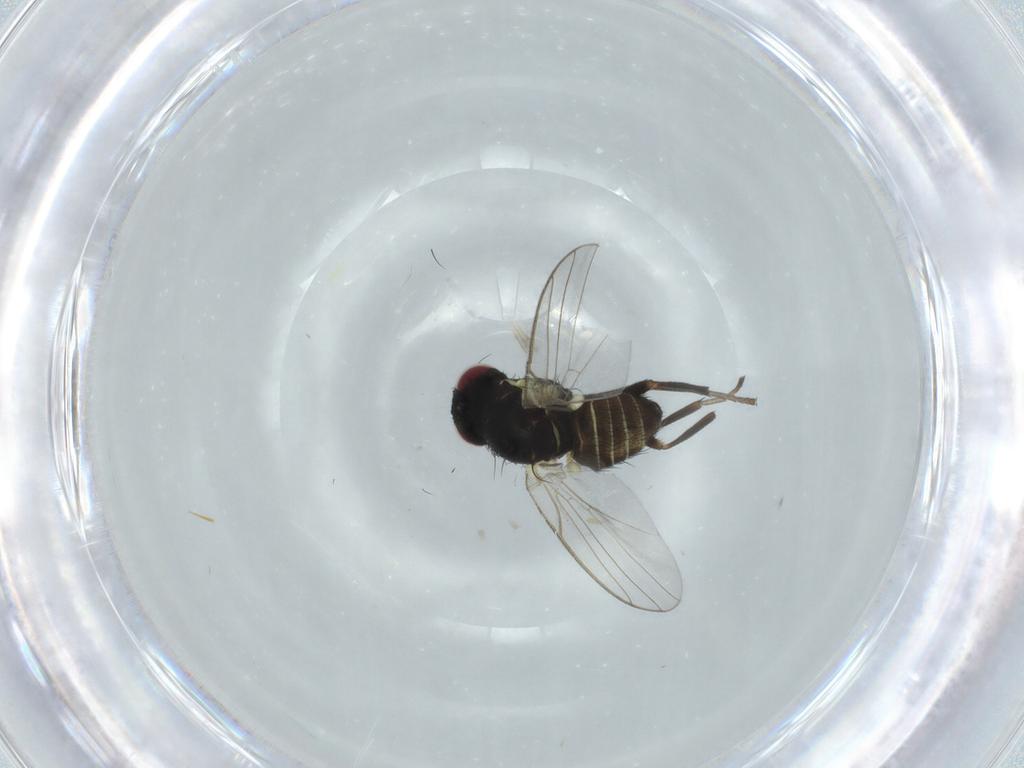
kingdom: Animalia
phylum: Arthropoda
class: Insecta
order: Diptera
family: Agromyzidae
